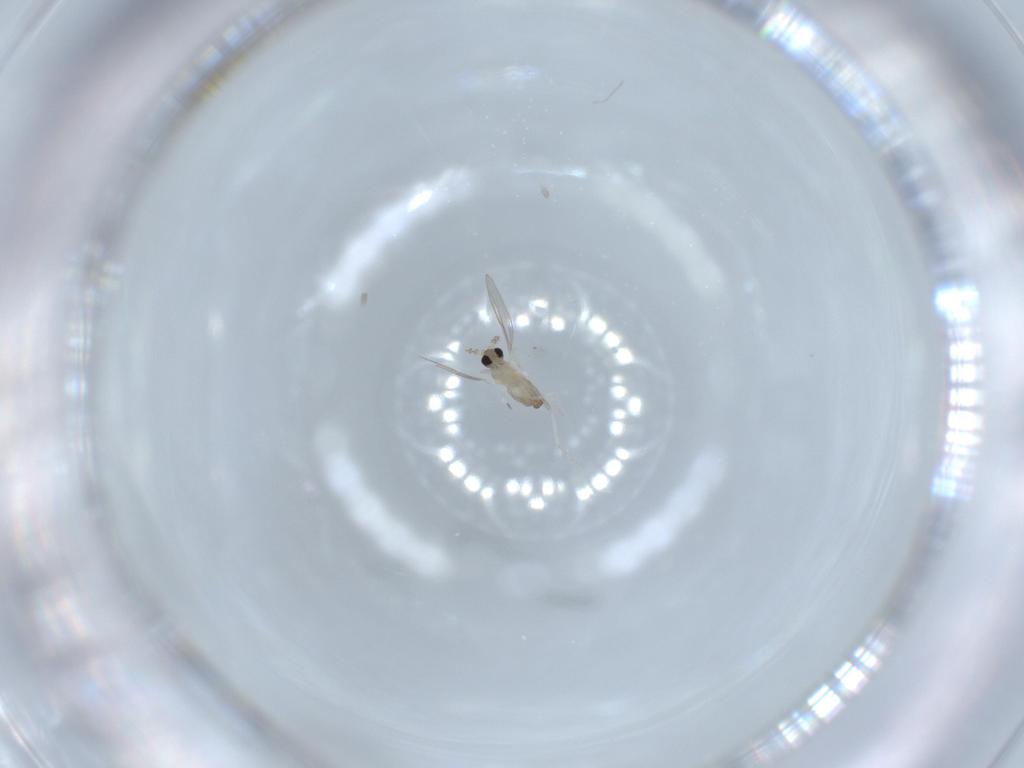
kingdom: Animalia
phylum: Arthropoda
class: Insecta
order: Diptera
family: Cecidomyiidae
